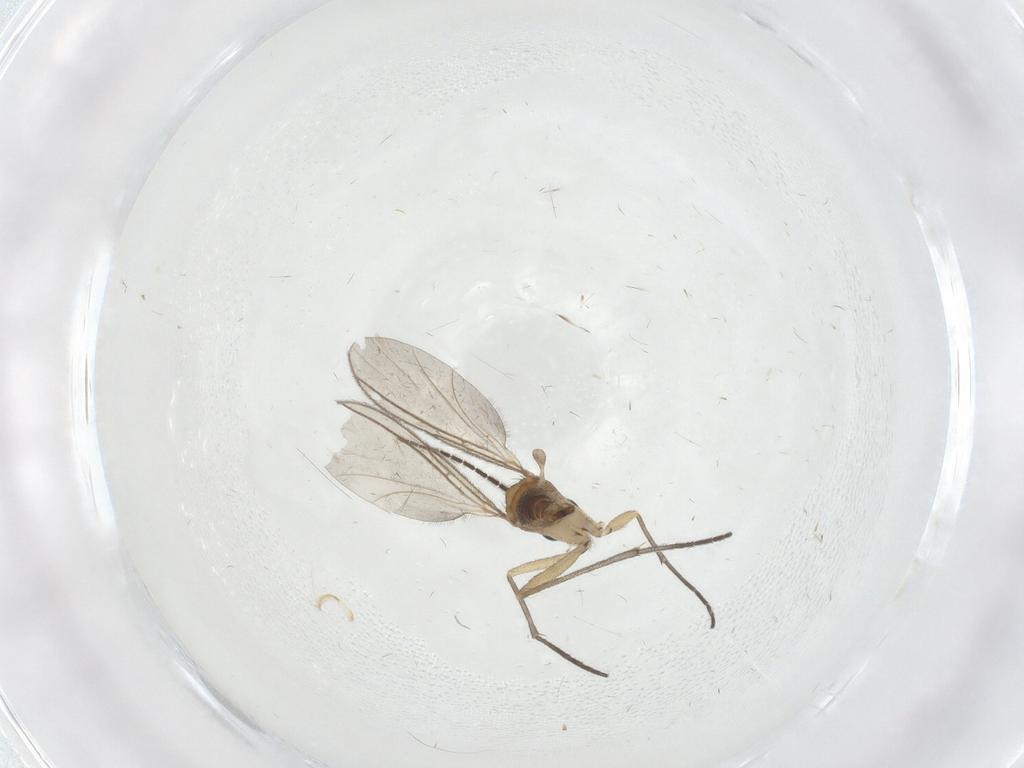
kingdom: Animalia
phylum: Arthropoda
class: Insecta
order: Diptera
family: Sciaridae
